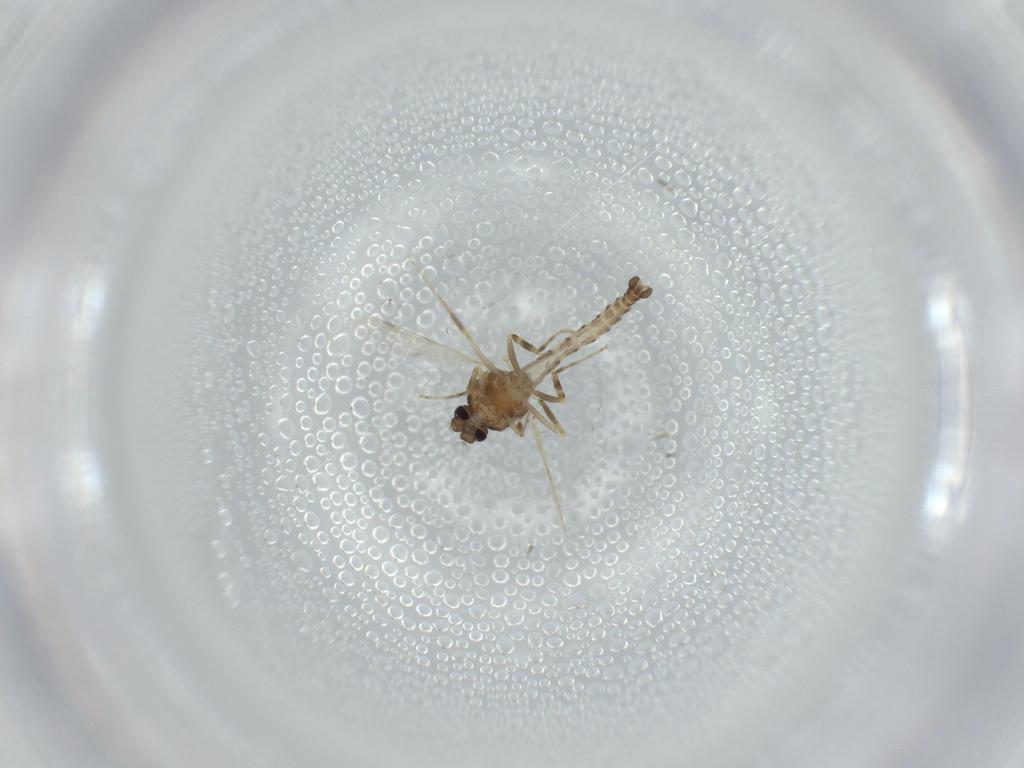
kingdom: Animalia
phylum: Arthropoda
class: Insecta
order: Diptera
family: Ceratopogonidae
